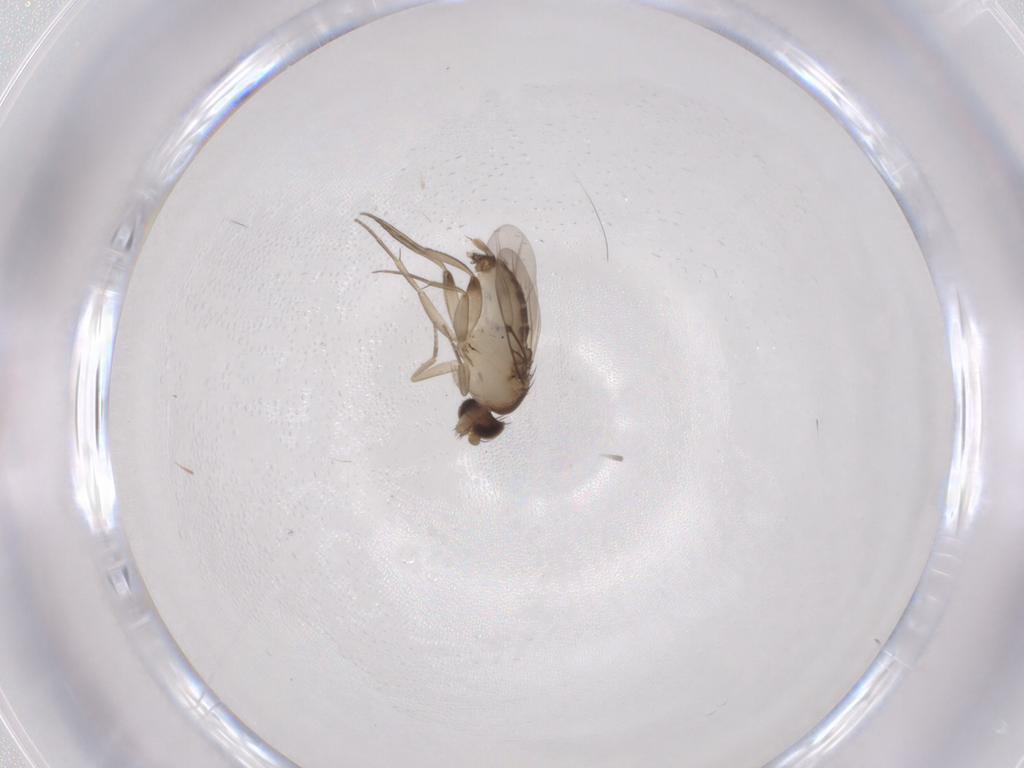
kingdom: Animalia
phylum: Arthropoda
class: Insecta
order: Diptera
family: Phoridae
